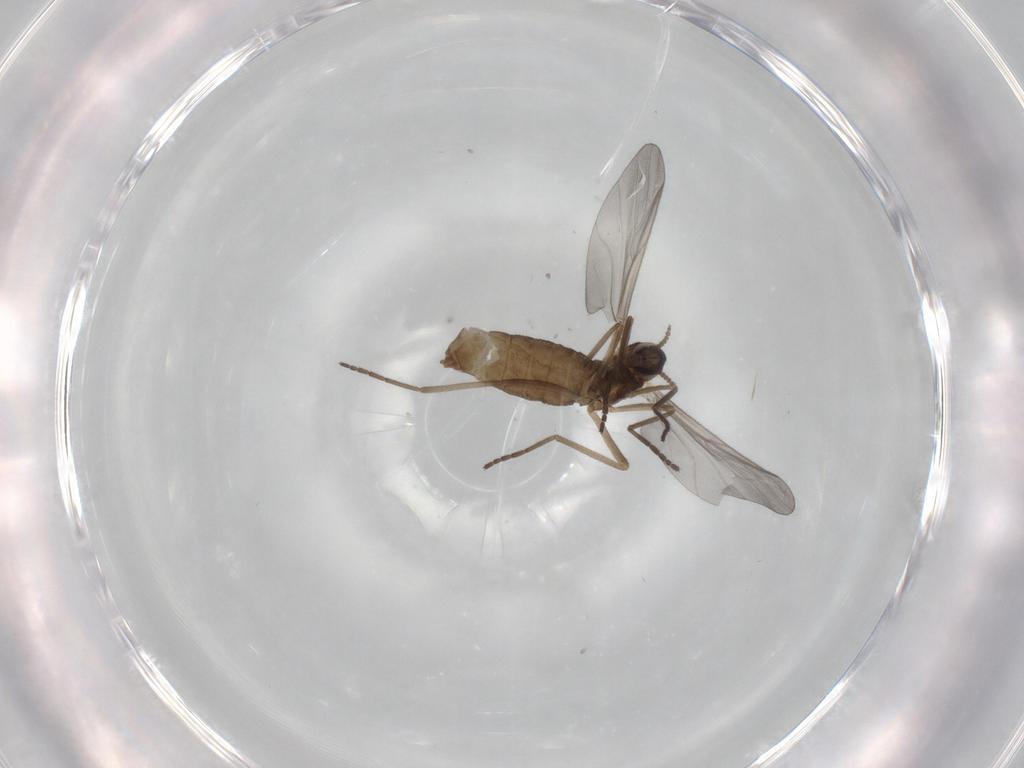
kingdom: Animalia
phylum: Arthropoda
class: Insecta
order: Diptera
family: Cecidomyiidae
